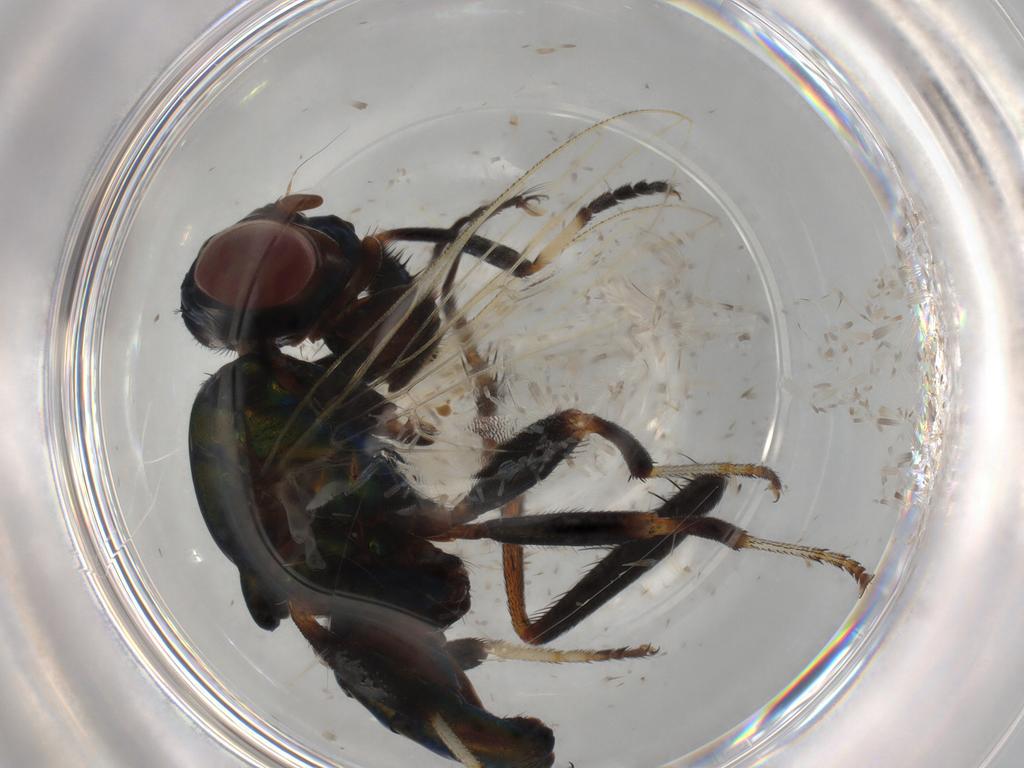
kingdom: Animalia
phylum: Arthropoda
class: Insecta
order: Diptera
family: Ulidiidae
